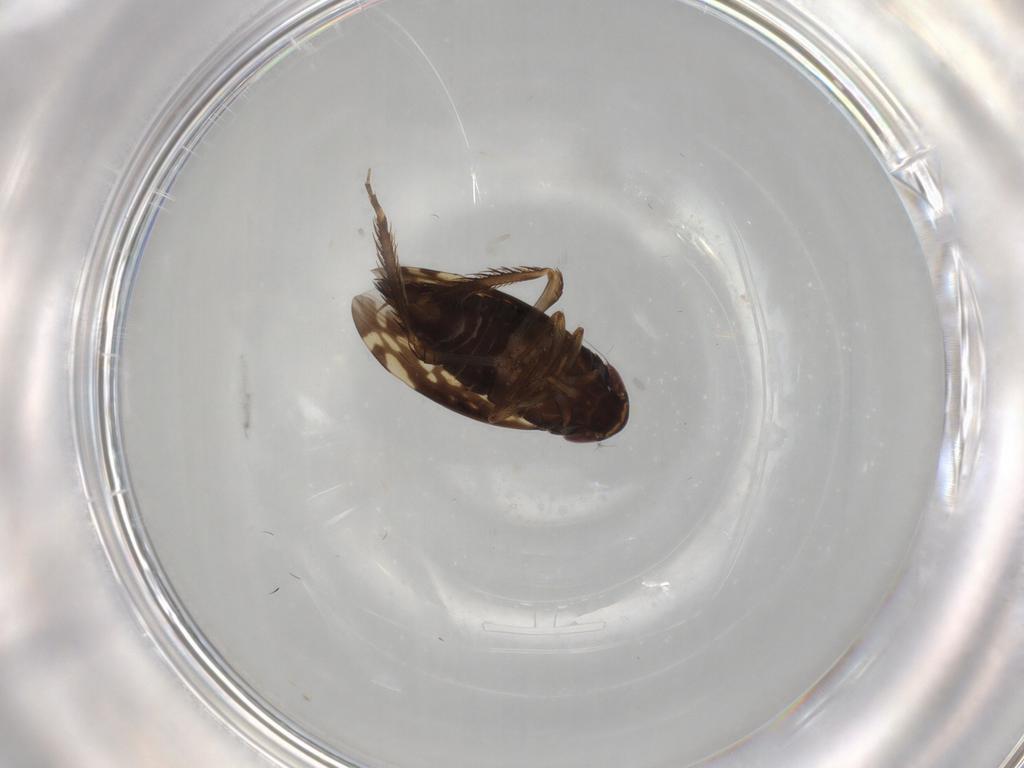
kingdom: Animalia
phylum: Arthropoda
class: Insecta
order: Hemiptera
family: Cicadellidae
